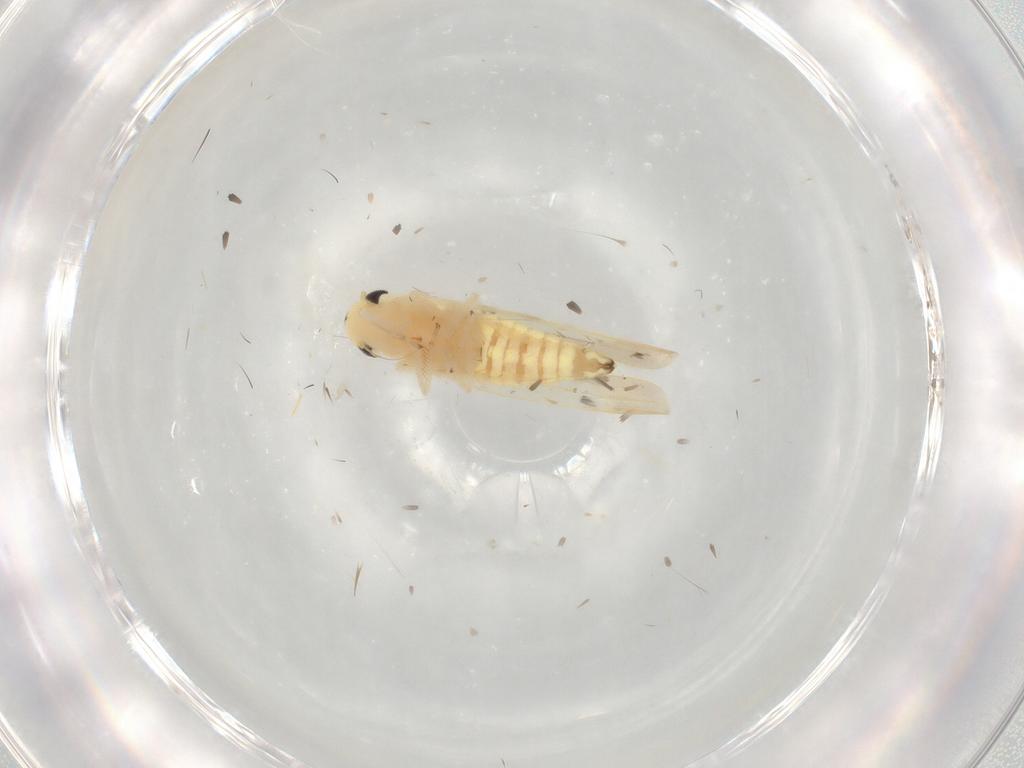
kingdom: Animalia
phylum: Arthropoda
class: Insecta
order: Hemiptera
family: Cicadellidae
